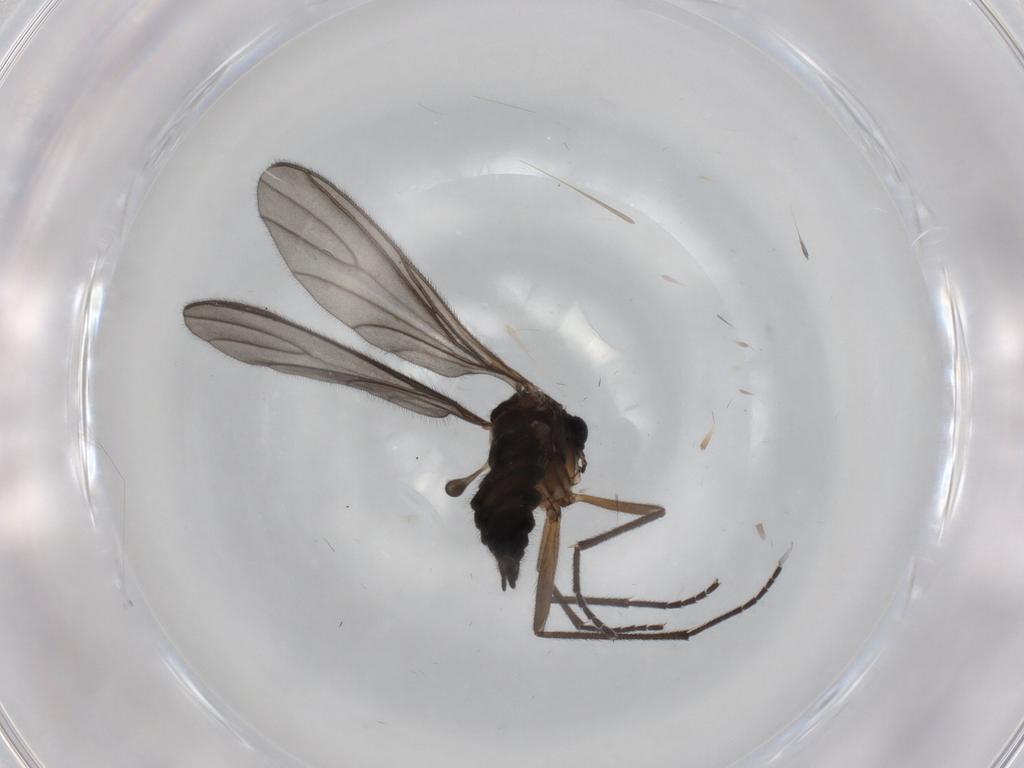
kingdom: Animalia
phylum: Arthropoda
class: Insecta
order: Diptera
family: Sciaridae
